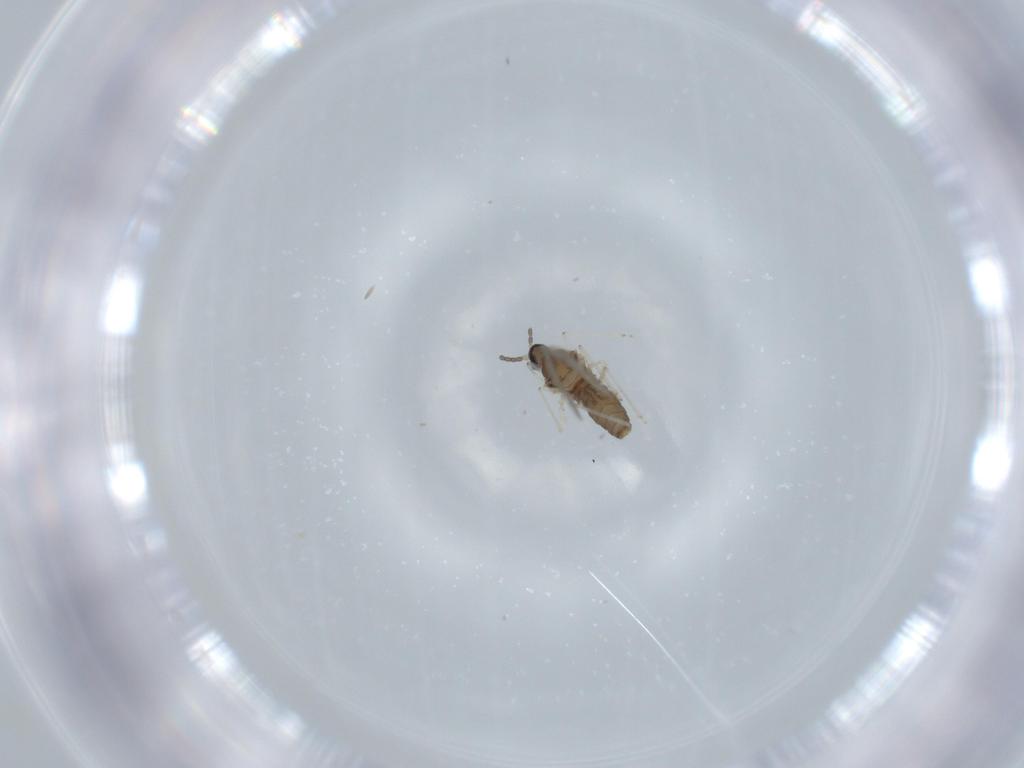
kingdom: Animalia
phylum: Arthropoda
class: Insecta
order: Diptera
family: Cecidomyiidae
